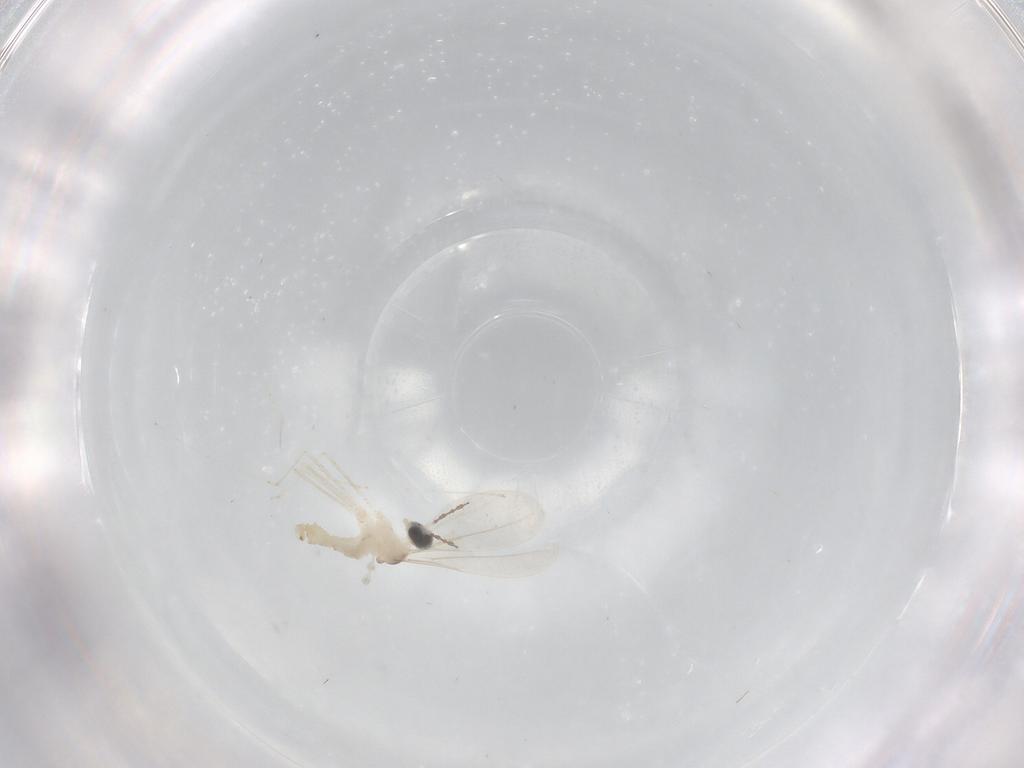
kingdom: Animalia
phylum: Arthropoda
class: Insecta
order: Diptera
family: Cecidomyiidae
